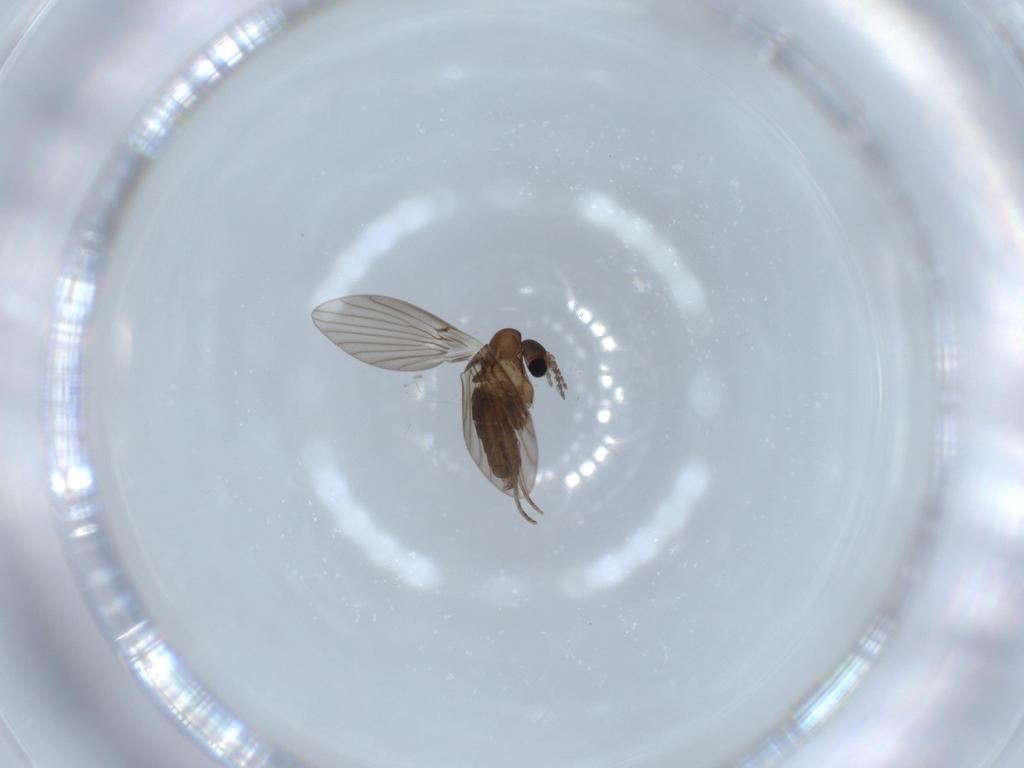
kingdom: Animalia
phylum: Arthropoda
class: Insecta
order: Diptera
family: Psychodidae
